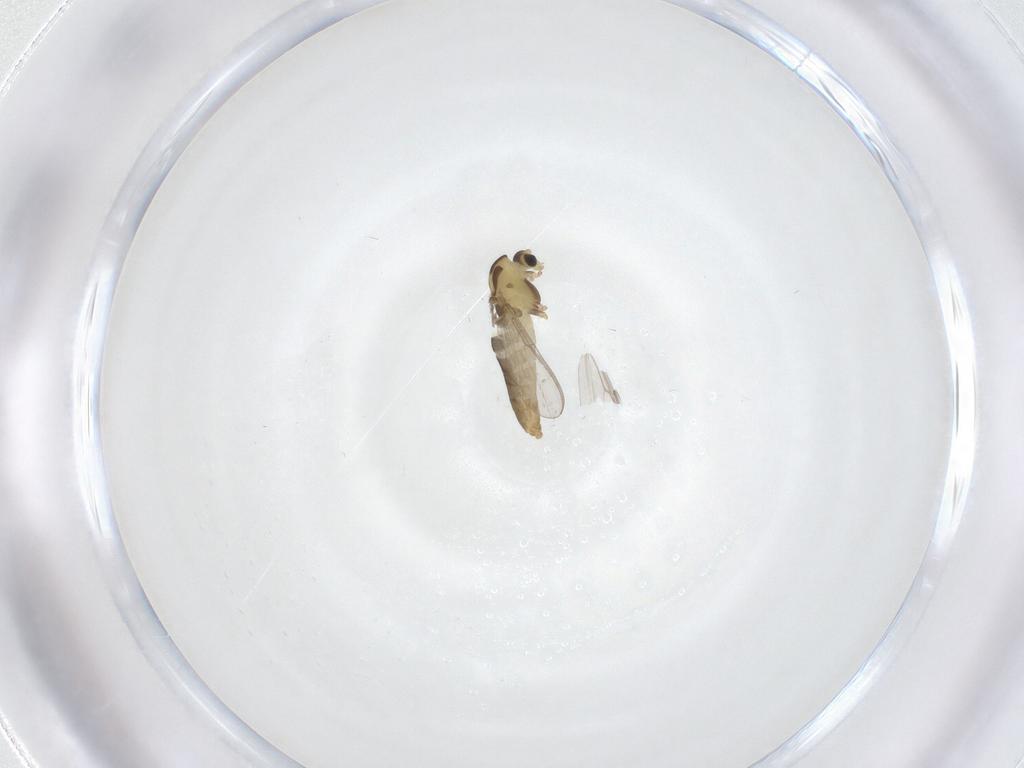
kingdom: Animalia
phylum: Arthropoda
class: Insecta
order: Diptera
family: Chironomidae
